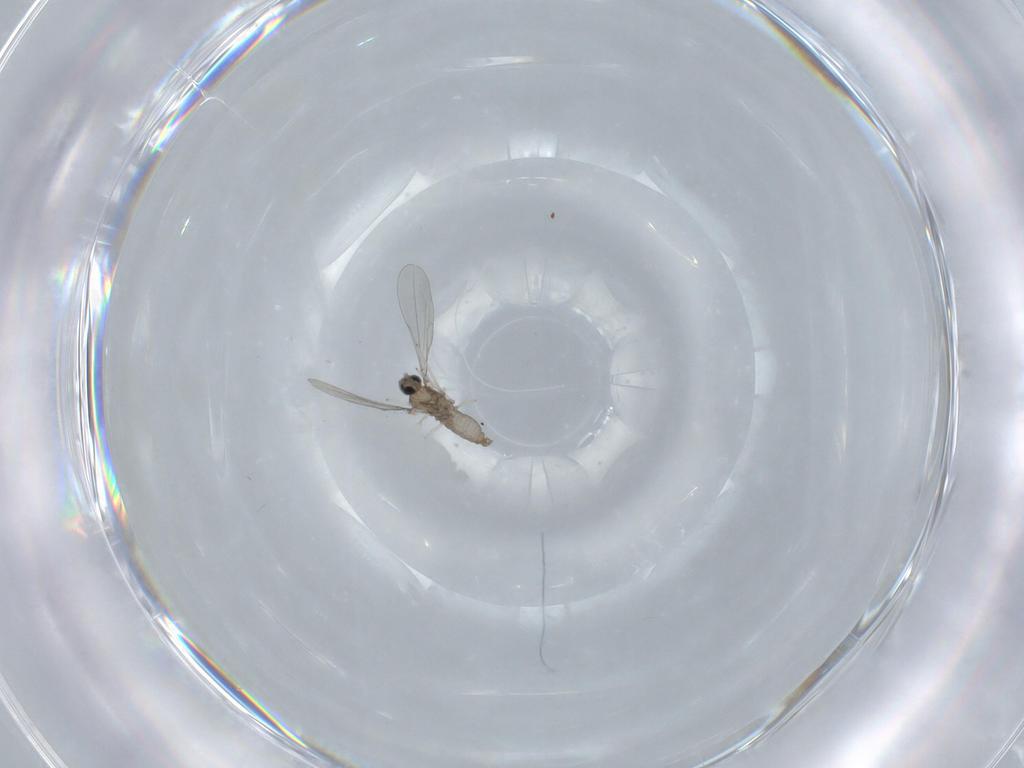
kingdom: Animalia
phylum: Arthropoda
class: Insecta
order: Diptera
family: Cecidomyiidae
